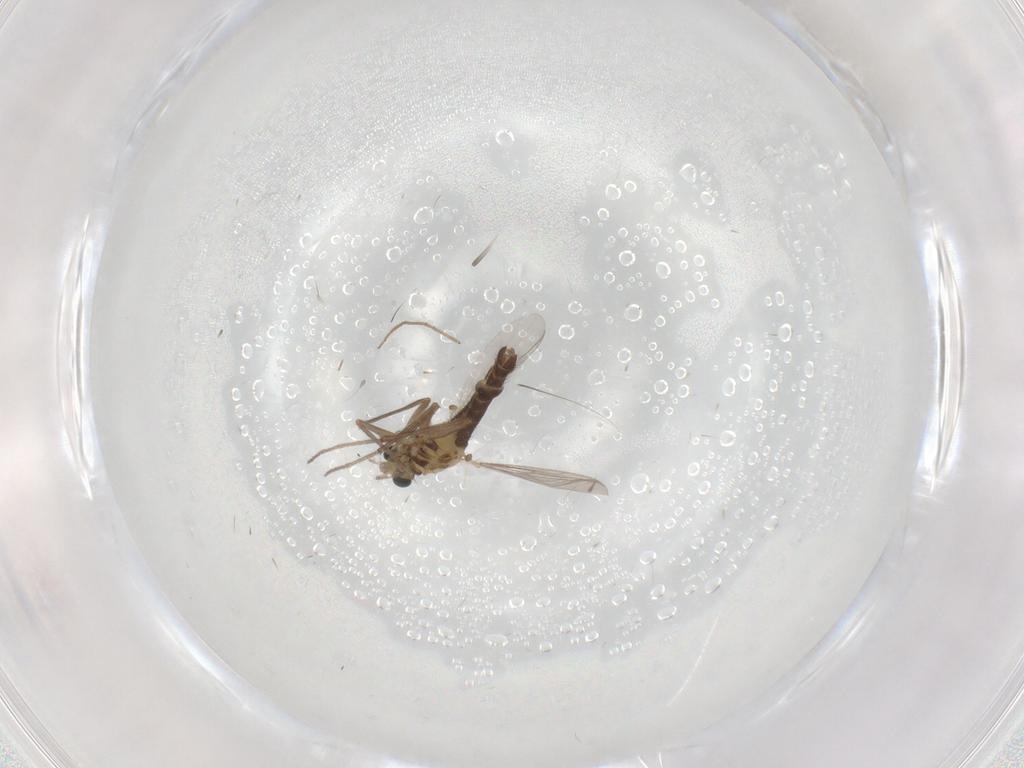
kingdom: Animalia
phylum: Arthropoda
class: Insecta
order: Diptera
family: Chironomidae
